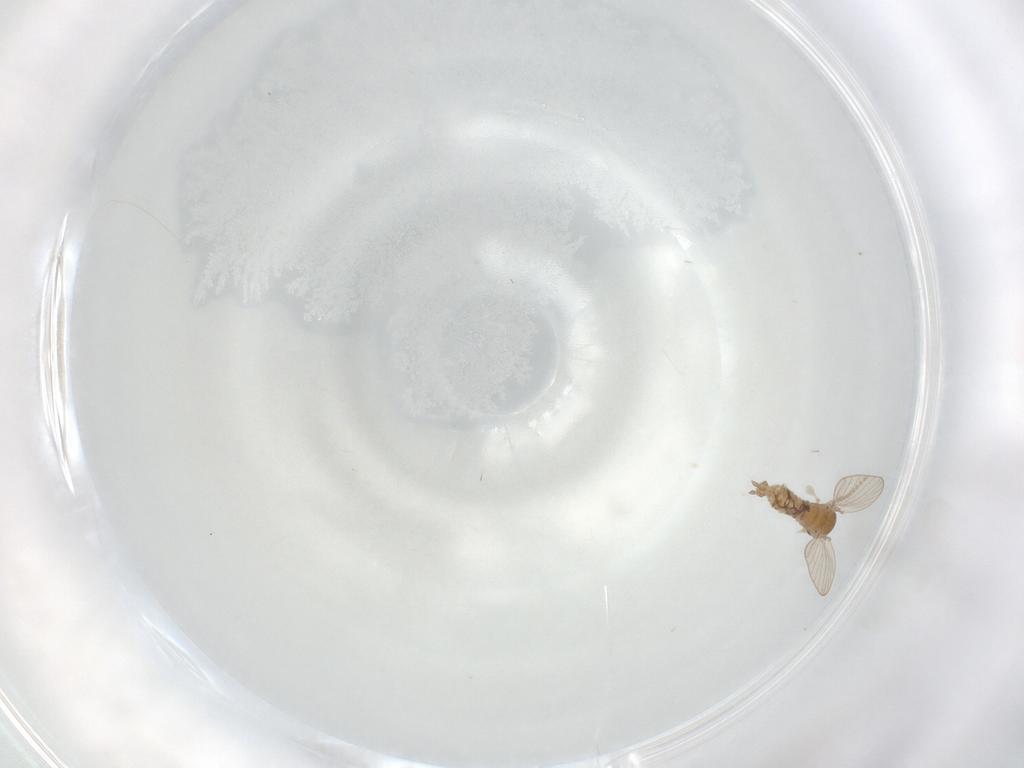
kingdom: Animalia
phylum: Arthropoda
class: Insecta
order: Diptera
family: Psychodidae
